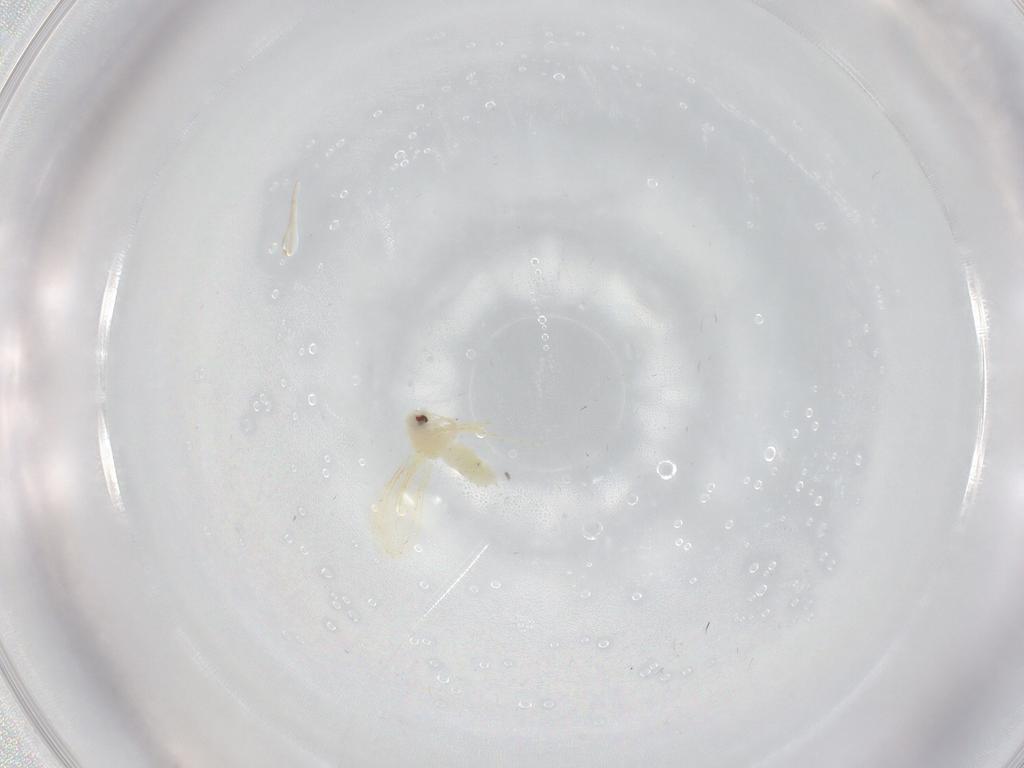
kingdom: Animalia
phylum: Arthropoda
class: Insecta
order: Hemiptera
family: Aleyrodidae
